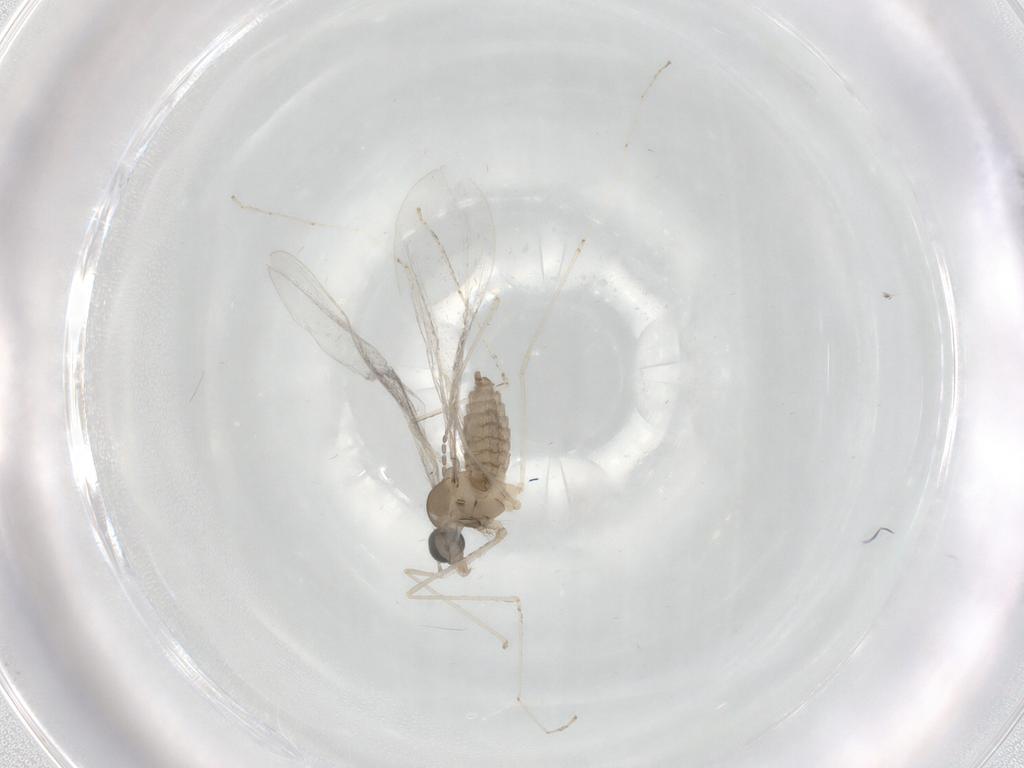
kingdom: Animalia
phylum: Arthropoda
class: Insecta
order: Diptera
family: Cecidomyiidae
